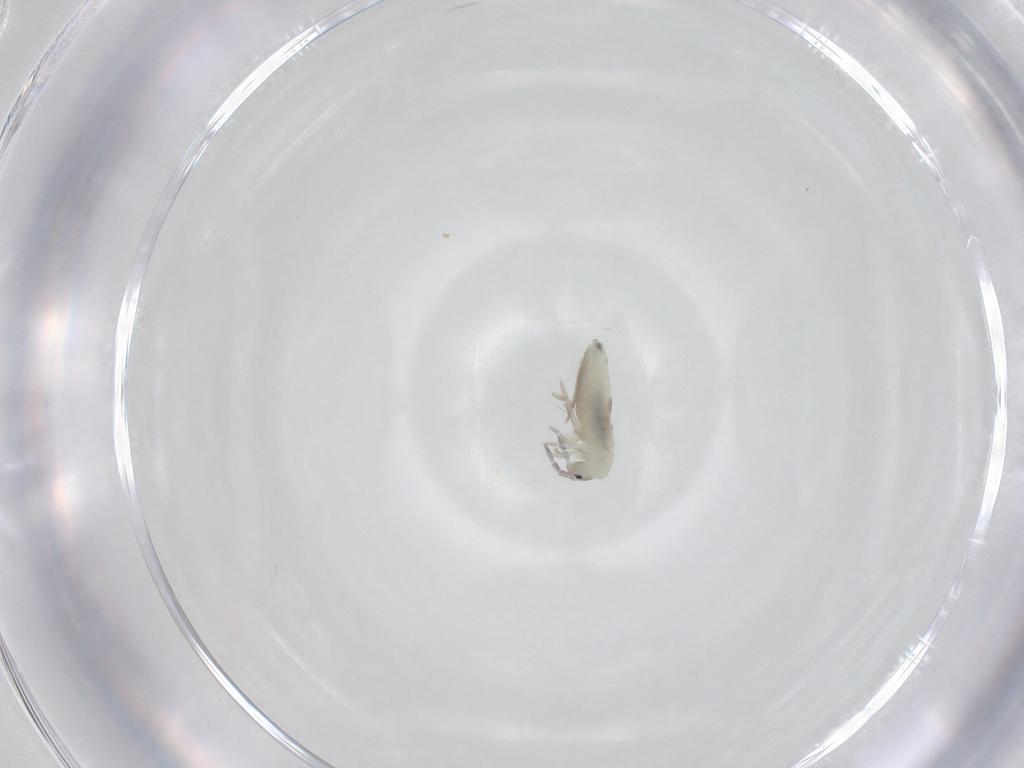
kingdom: Animalia
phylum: Arthropoda
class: Collembola
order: Entomobryomorpha
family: Entomobryidae
